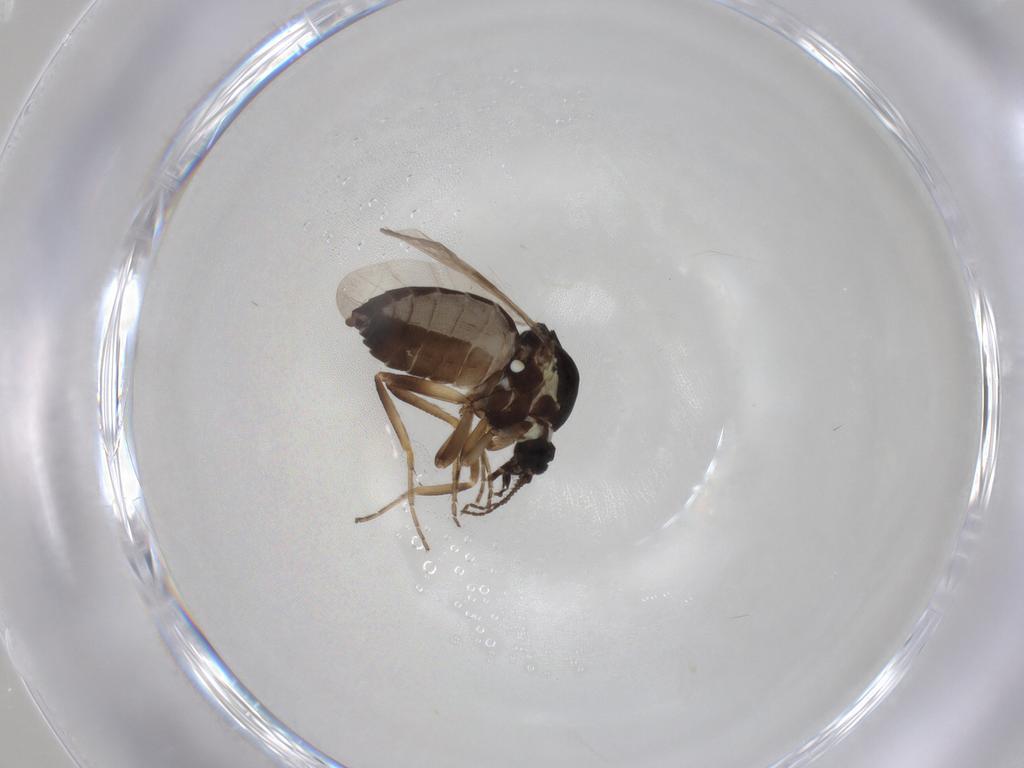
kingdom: Animalia
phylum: Arthropoda
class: Insecta
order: Diptera
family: Ceratopogonidae
